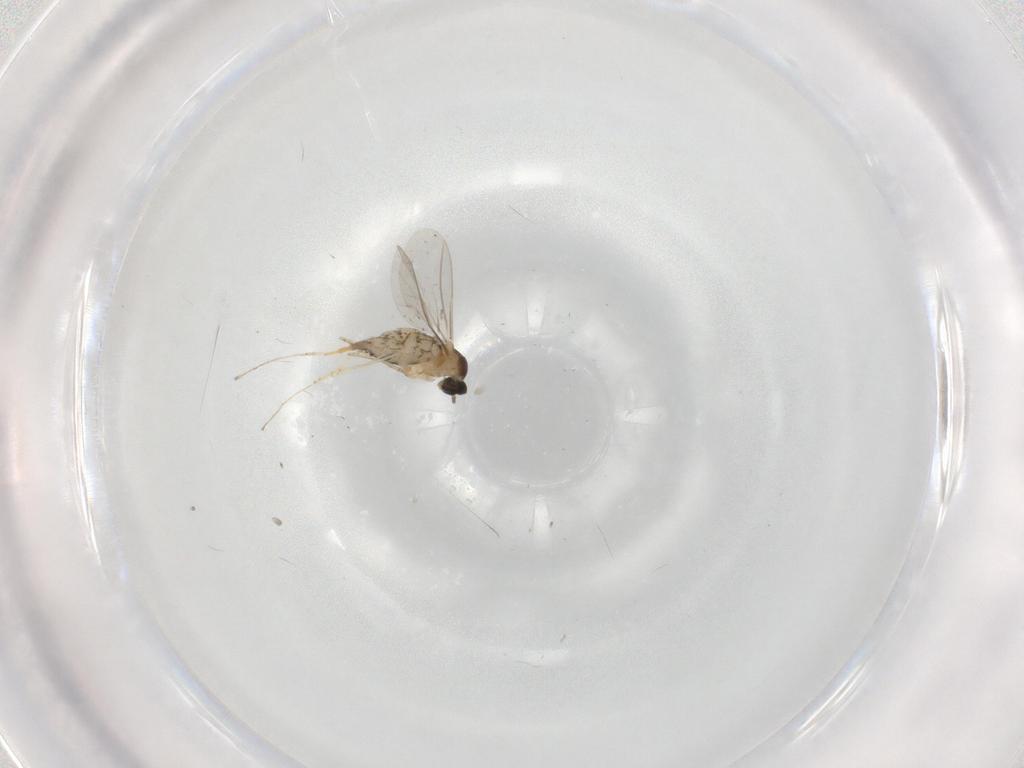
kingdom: Animalia
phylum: Arthropoda
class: Insecta
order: Diptera
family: Cecidomyiidae
